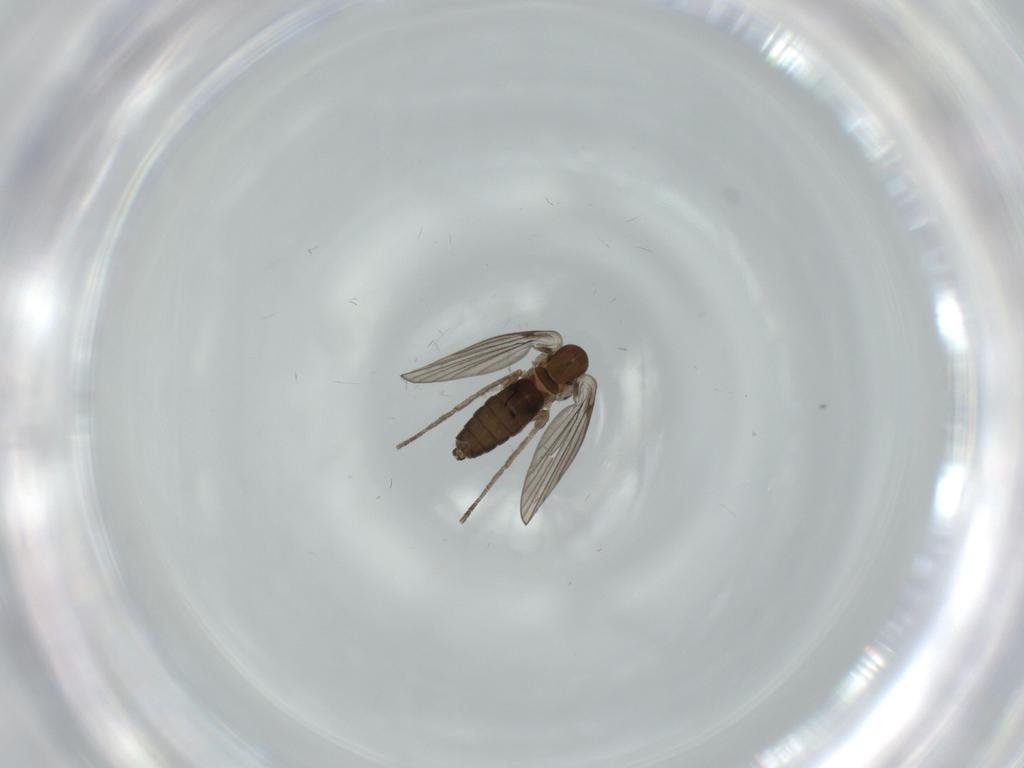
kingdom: Animalia
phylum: Arthropoda
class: Insecta
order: Diptera
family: Psychodidae
